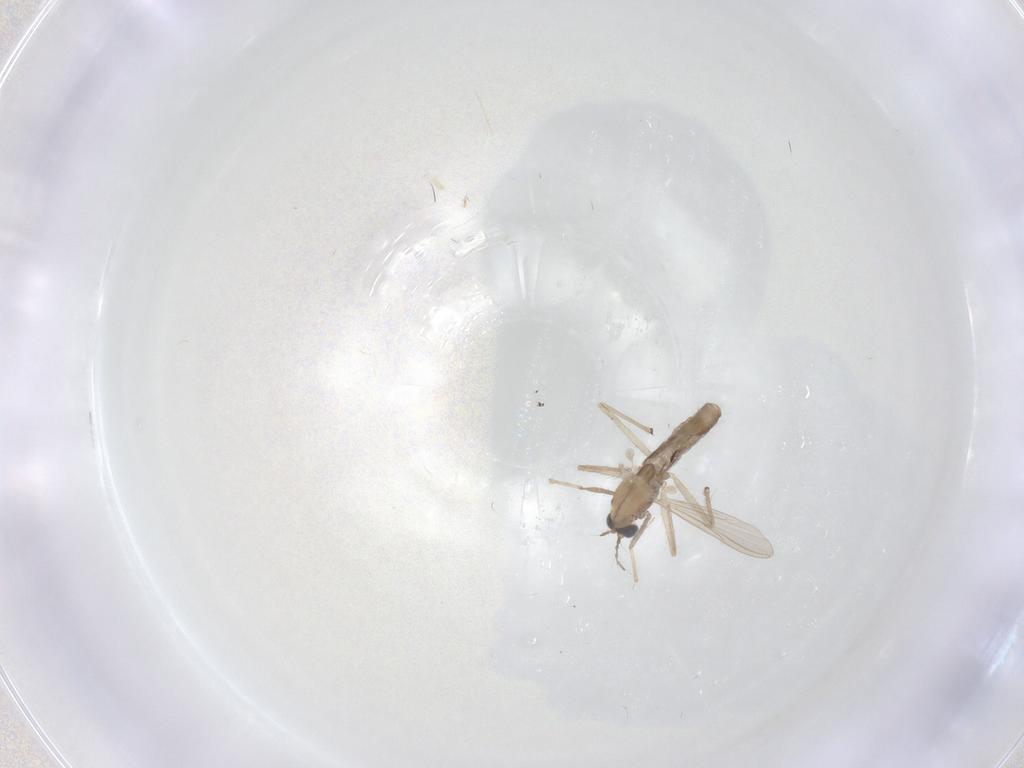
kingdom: Animalia
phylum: Arthropoda
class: Insecta
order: Diptera
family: Chironomidae
